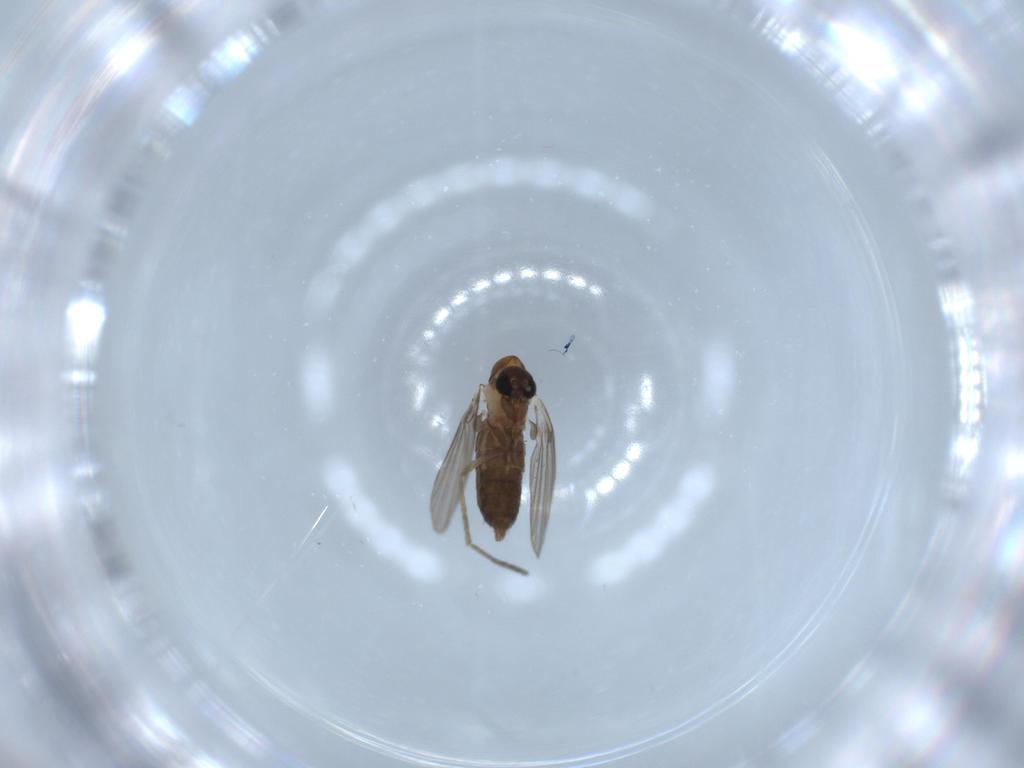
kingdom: Animalia
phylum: Arthropoda
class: Insecta
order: Diptera
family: Psychodidae
